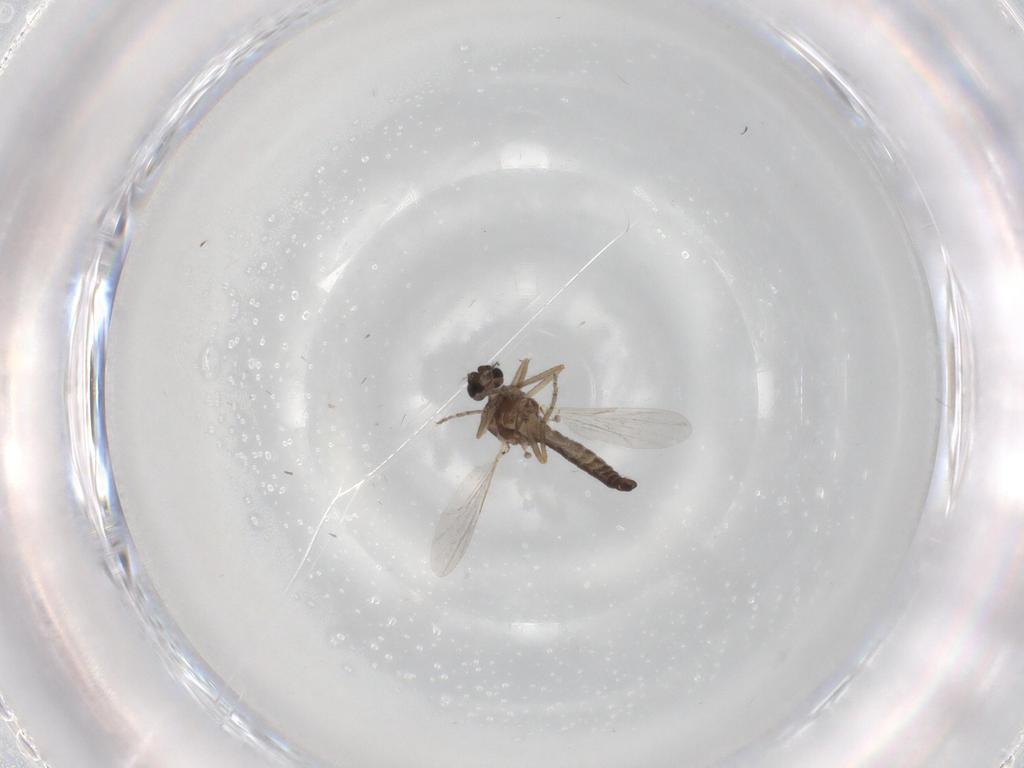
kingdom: Animalia
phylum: Arthropoda
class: Insecta
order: Diptera
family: Ceratopogonidae
